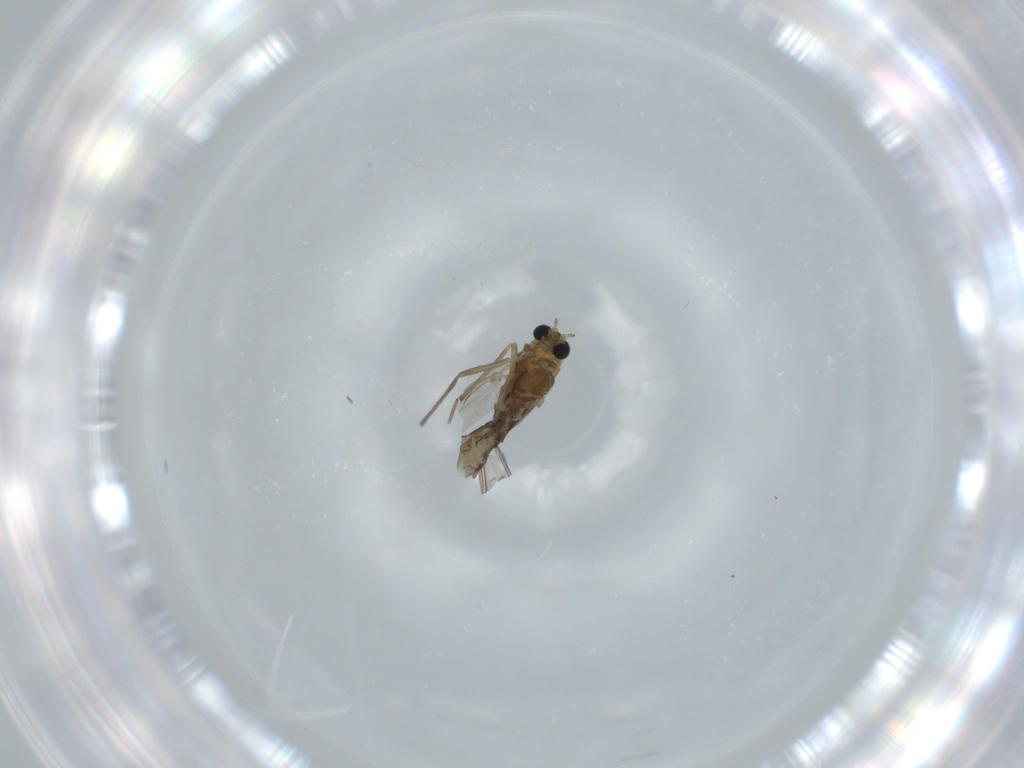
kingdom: Animalia
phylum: Arthropoda
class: Insecta
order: Diptera
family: Chironomidae
